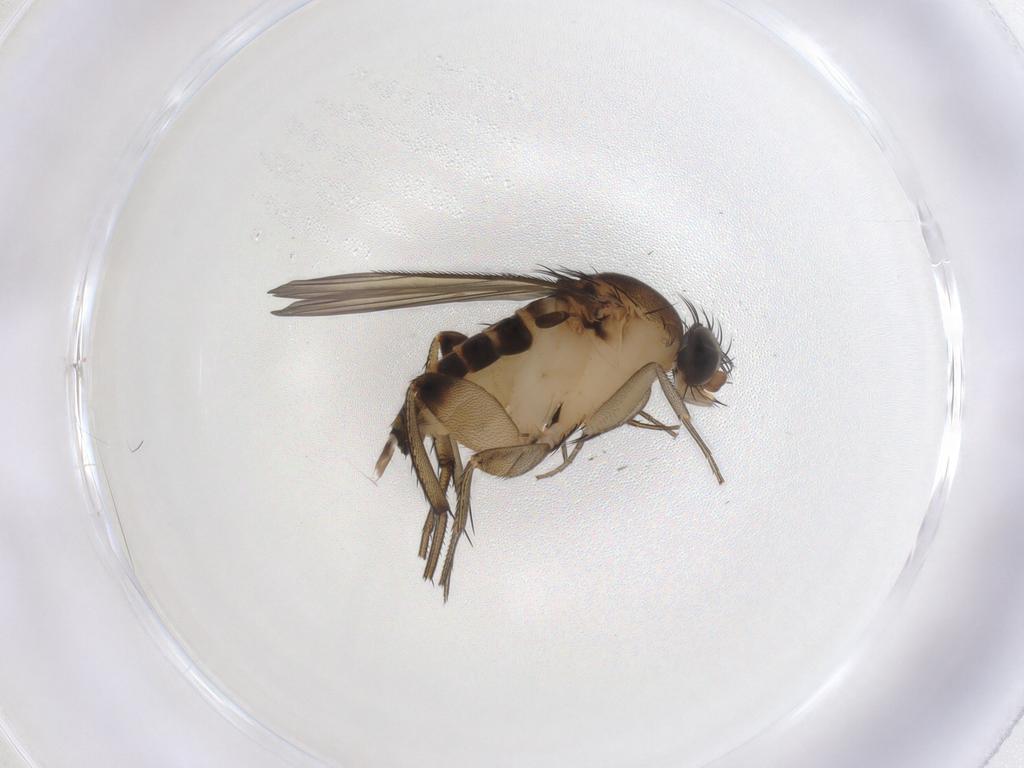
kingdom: Animalia
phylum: Arthropoda
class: Insecta
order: Diptera
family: Phoridae
